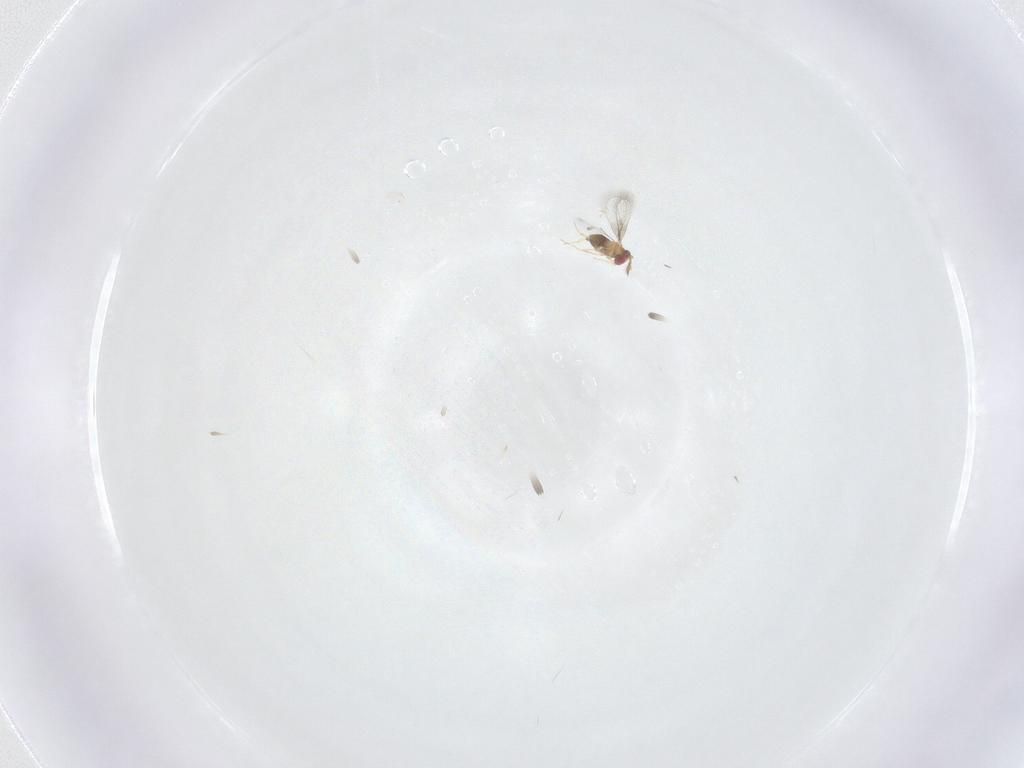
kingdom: Animalia
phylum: Arthropoda
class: Insecta
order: Hymenoptera
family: Trichogrammatidae
